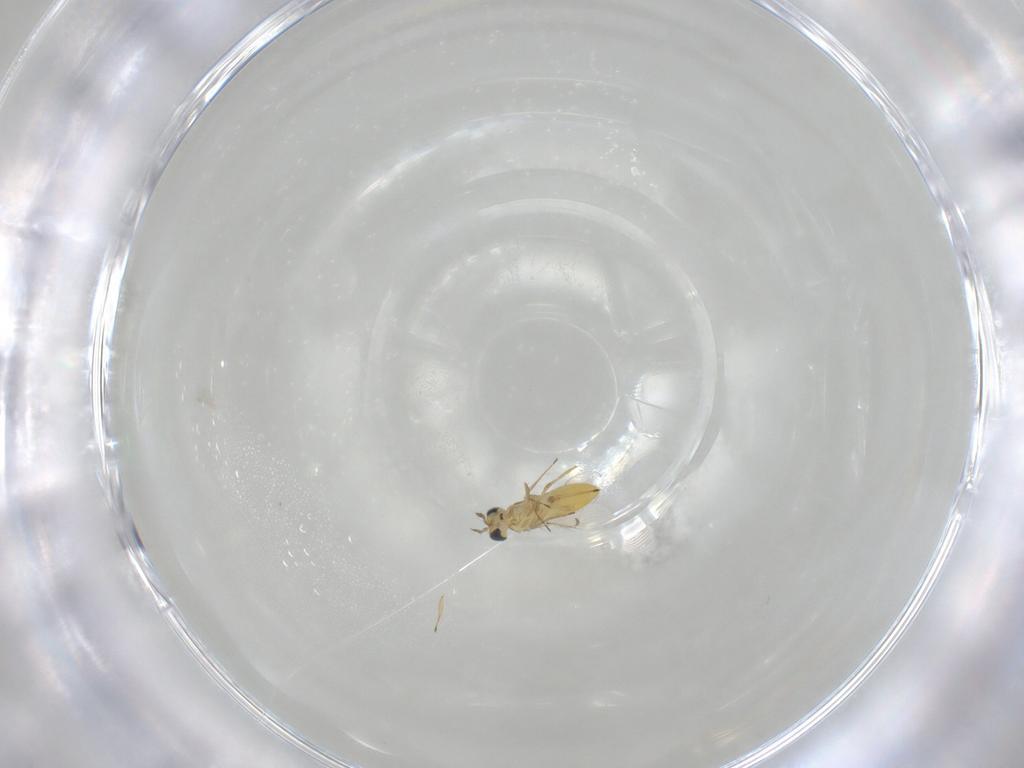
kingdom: Animalia
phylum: Arthropoda
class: Insecta
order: Hymenoptera
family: Trichogrammatidae
